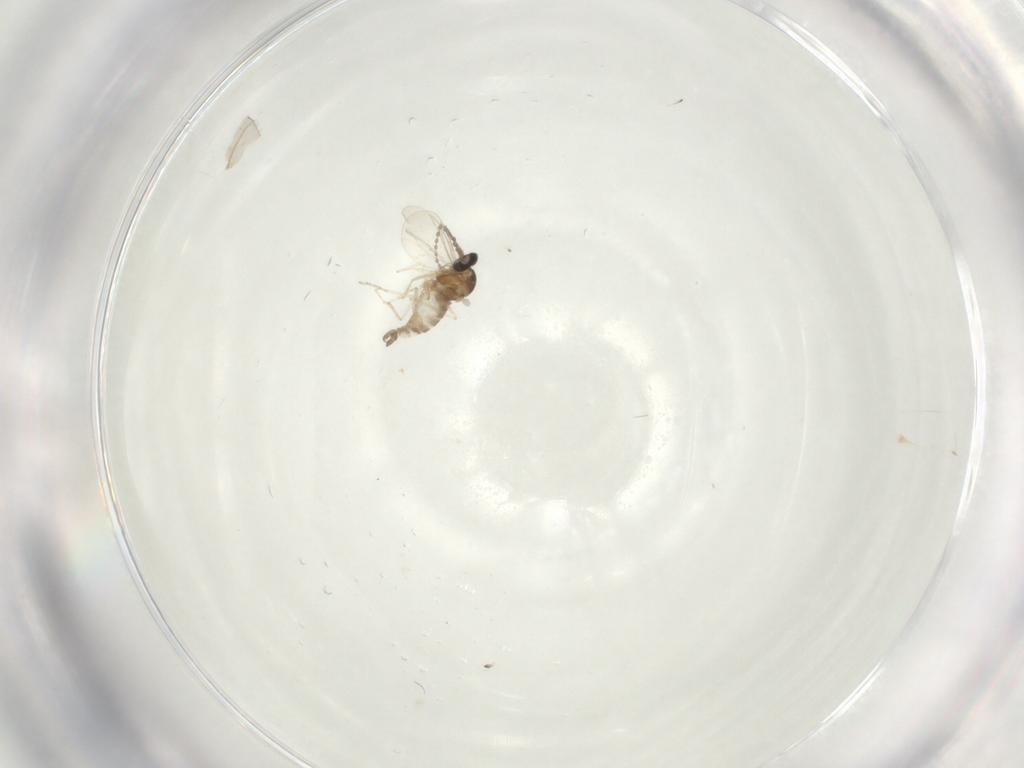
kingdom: Animalia
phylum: Arthropoda
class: Insecta
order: Diptera
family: Cecidomyiidae
